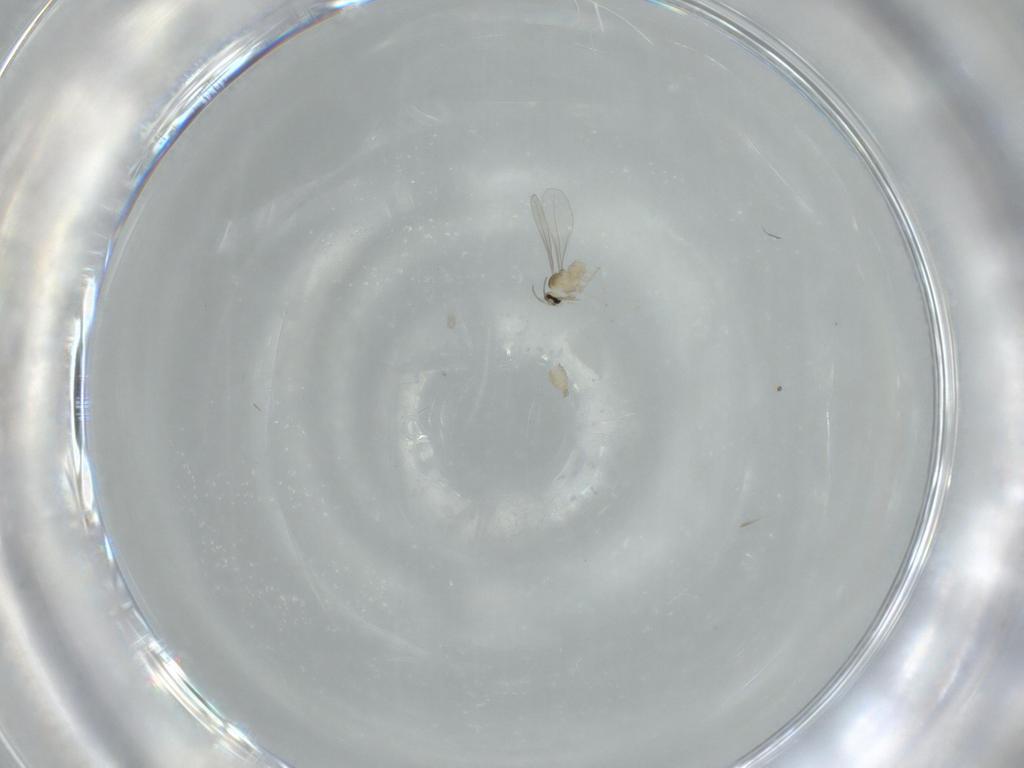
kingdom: Animalia
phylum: Arthropoda
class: Insecta
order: Diptera
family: Cecidomyiidae
